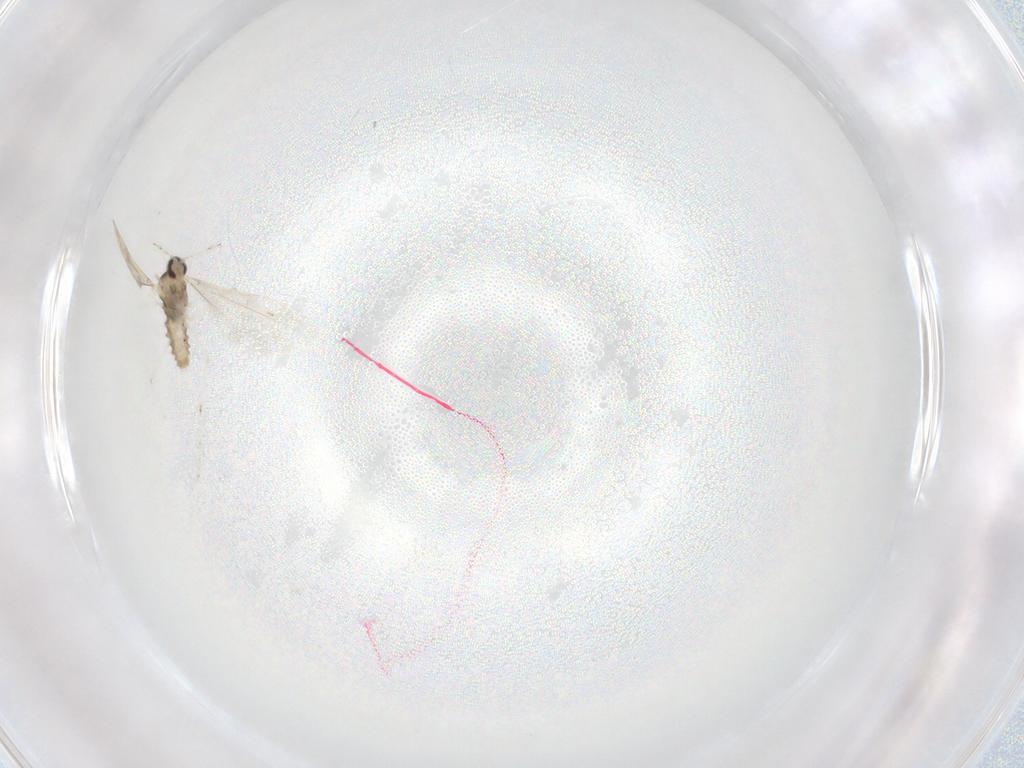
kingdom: Animalia
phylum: Arthropoda
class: Insecta
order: Diptera
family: Cecidomyiidae
